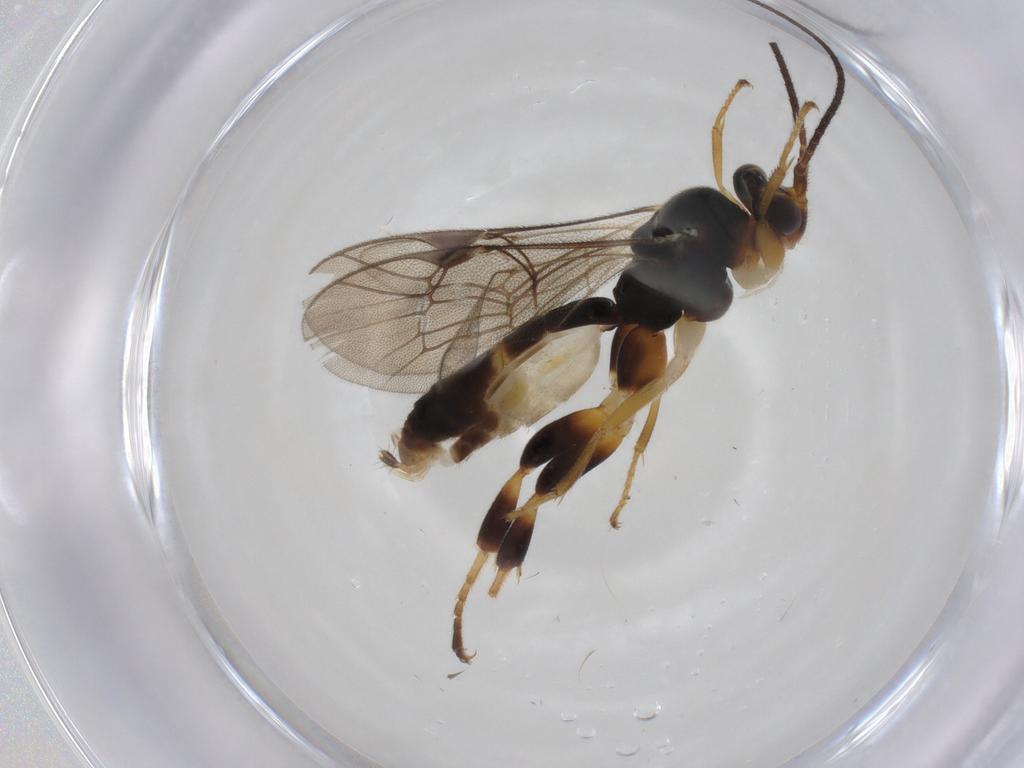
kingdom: Animalia
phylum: Arthropoda
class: Insecta
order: Hymenoptera
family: Ichneumonidae
